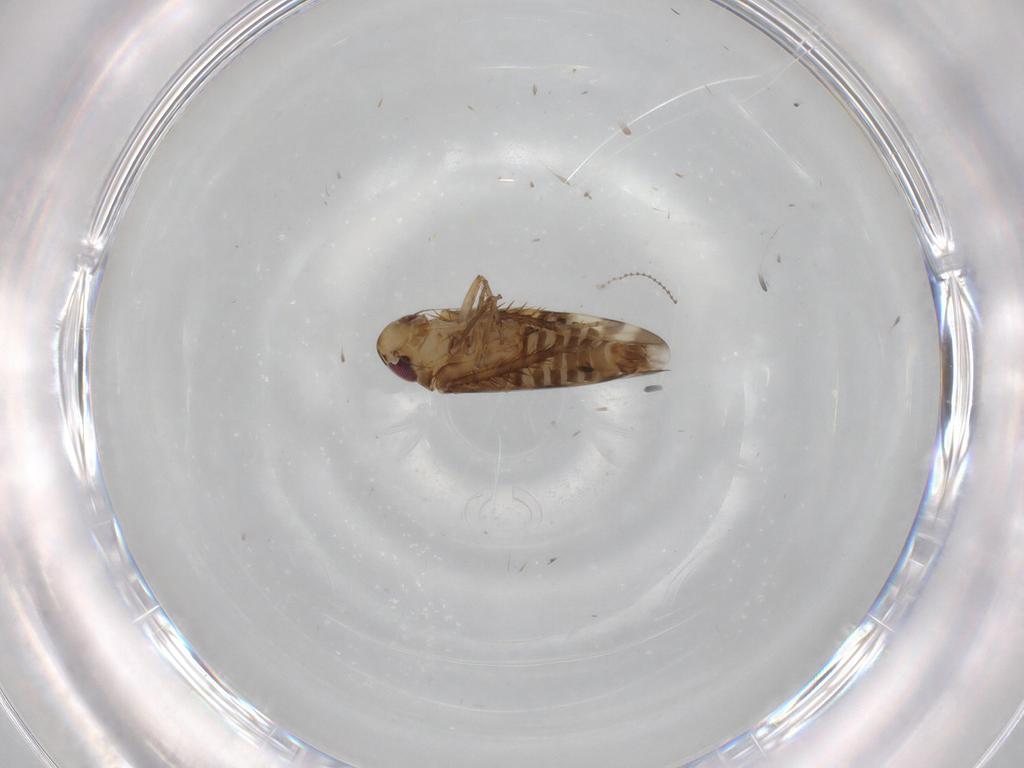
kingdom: Animalia
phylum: Arthropoda
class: Insecta
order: Hemiptera
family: Cicadellidae
